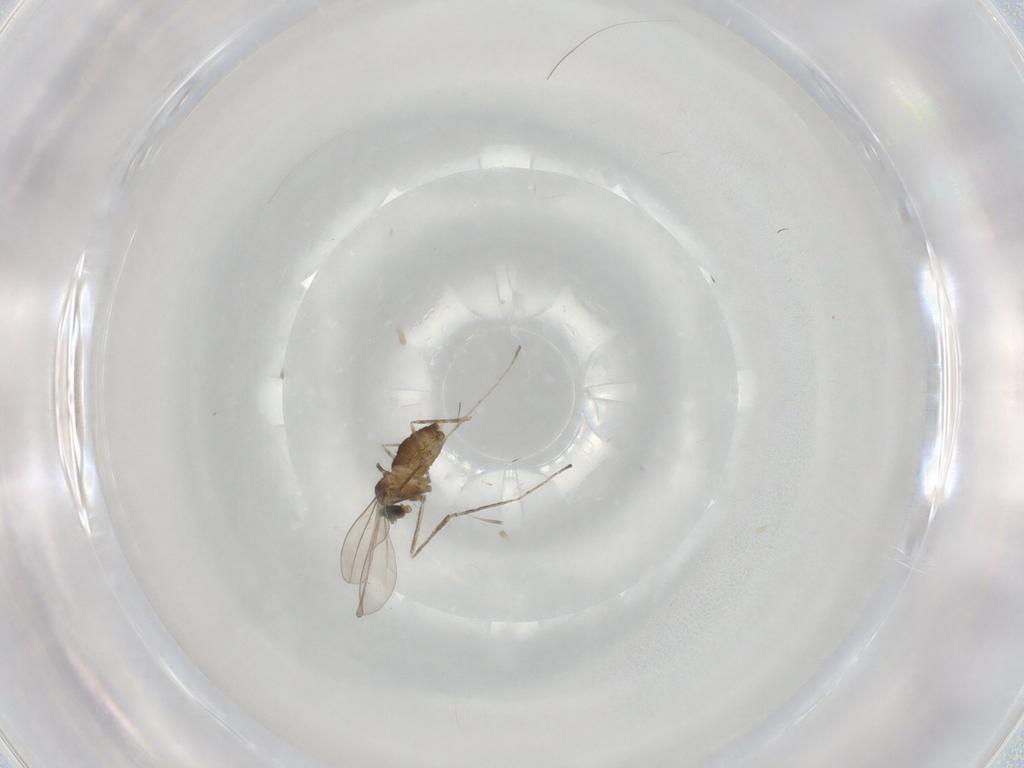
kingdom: Animalia
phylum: Arthropoda
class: Insecta
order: Diptera
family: Cecidomyiidae
